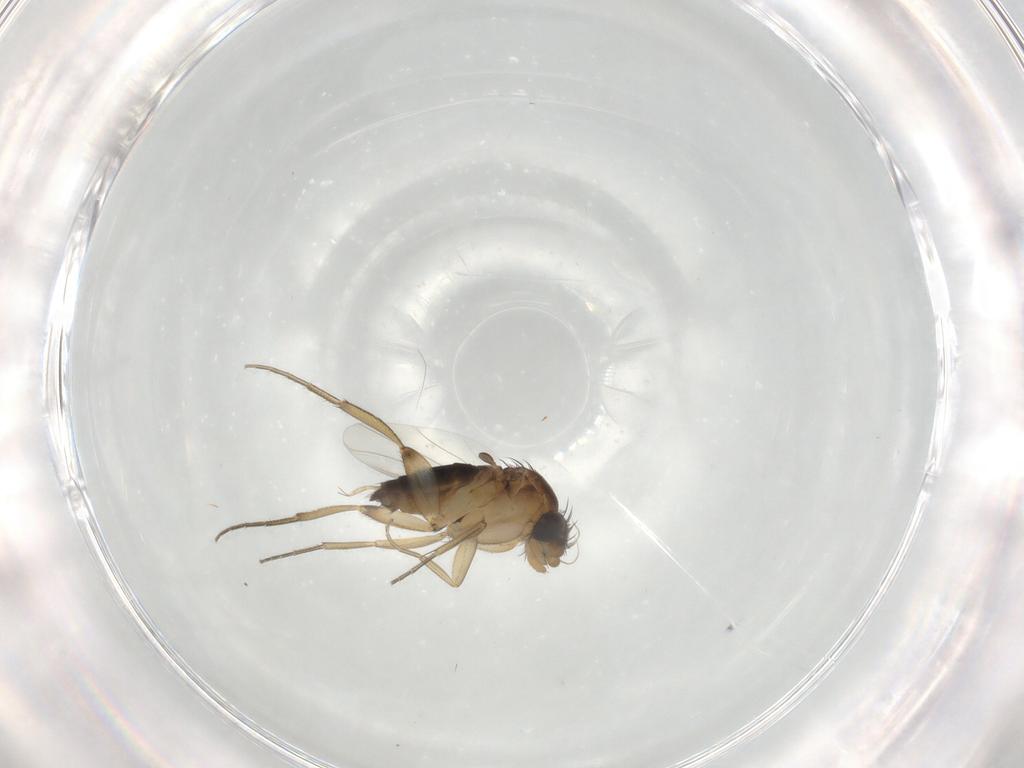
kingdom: Animalia
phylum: Arthropoda
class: Insecta
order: Diptera
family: Phoridae
